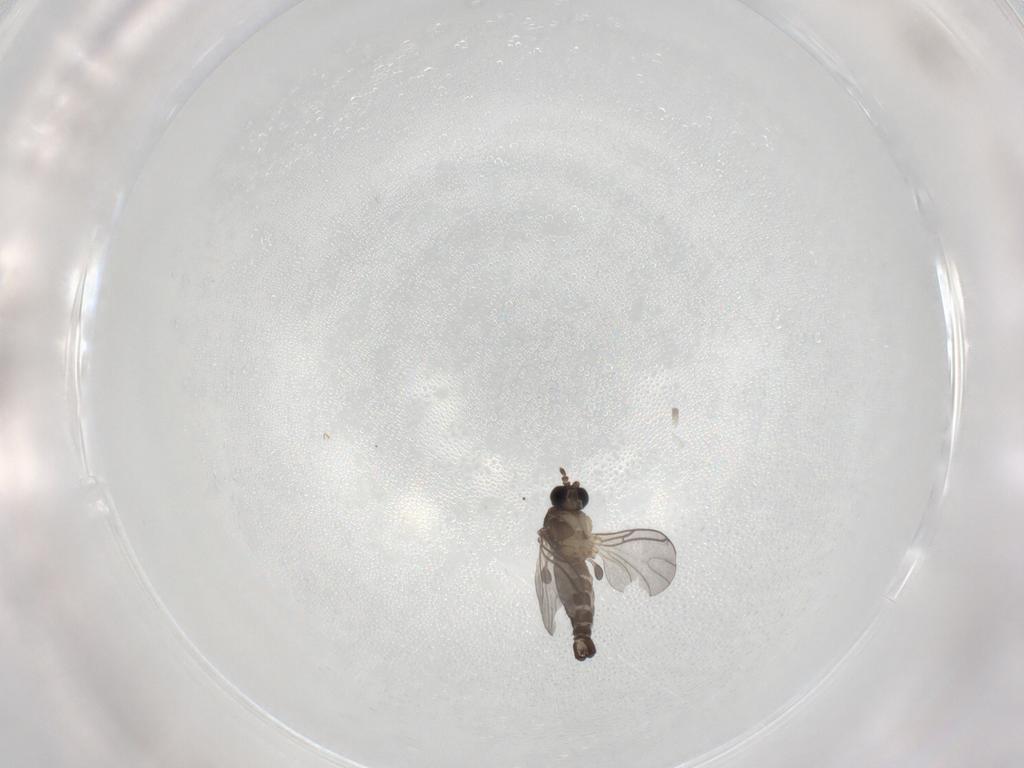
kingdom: Animalia
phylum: Arthropoda
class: Insecta
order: Diptera
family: Sciaridae
